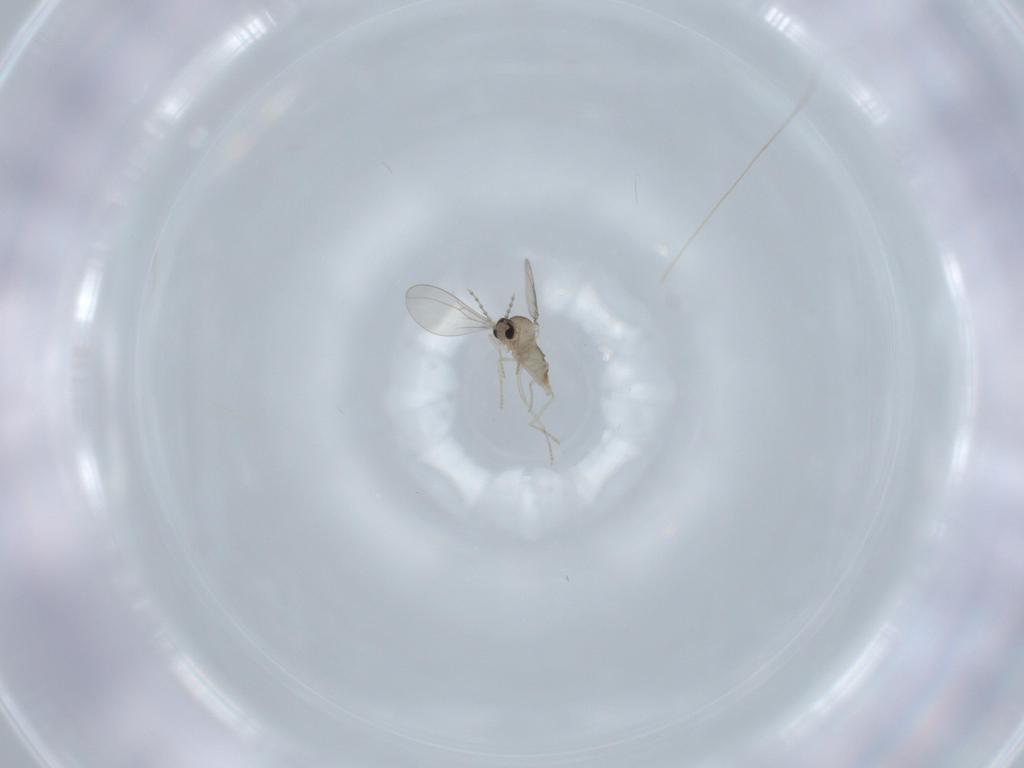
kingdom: Animalia
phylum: Arthropoda
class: Insecta
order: Diptera
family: Cecidomyiidae
